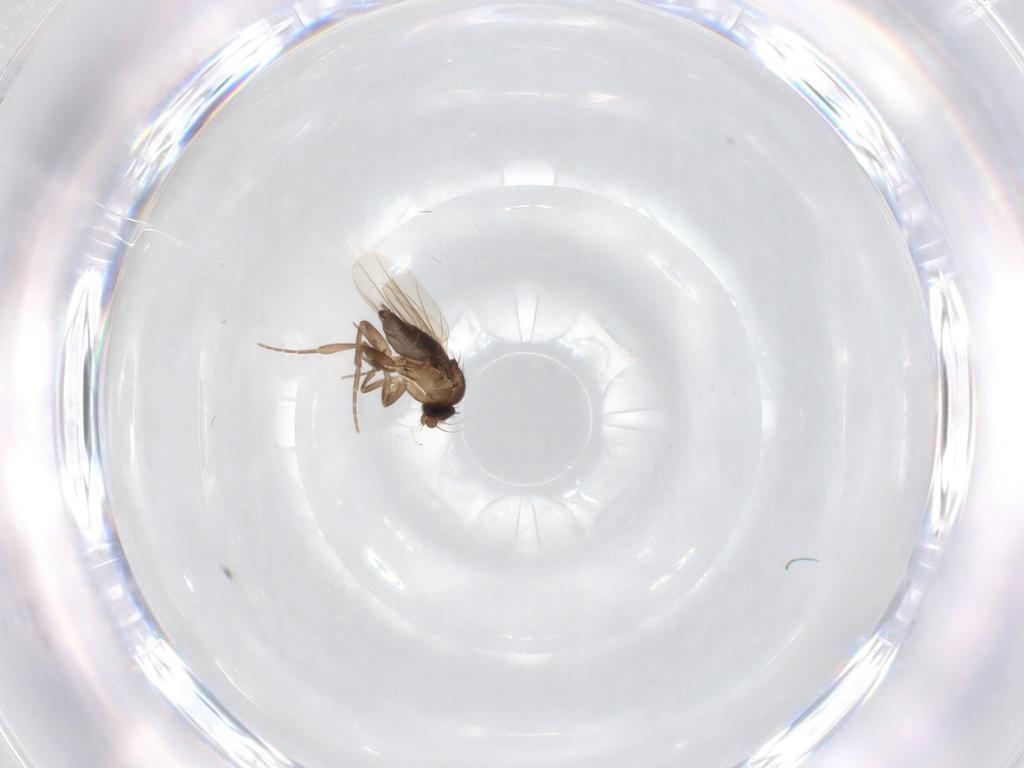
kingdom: Animalia
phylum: Arthropoda
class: Insecta
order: Diptera
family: Phoridae
